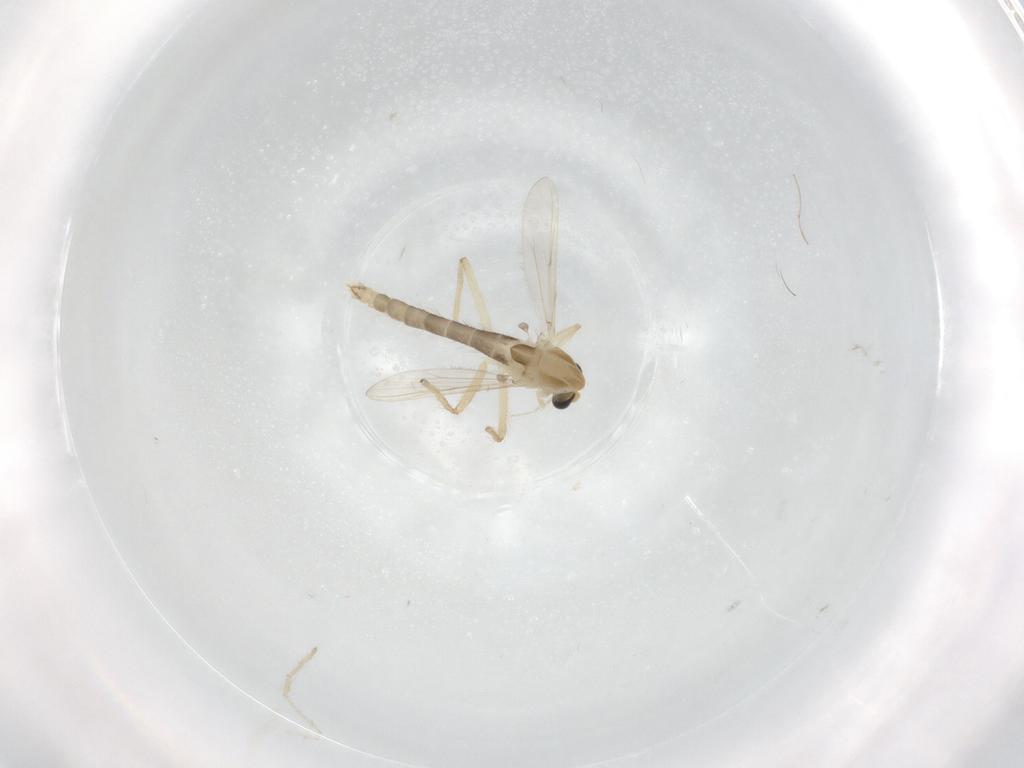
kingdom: Animalia
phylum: Arthropoda
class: Insecta
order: Diptera
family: Chironomidae
